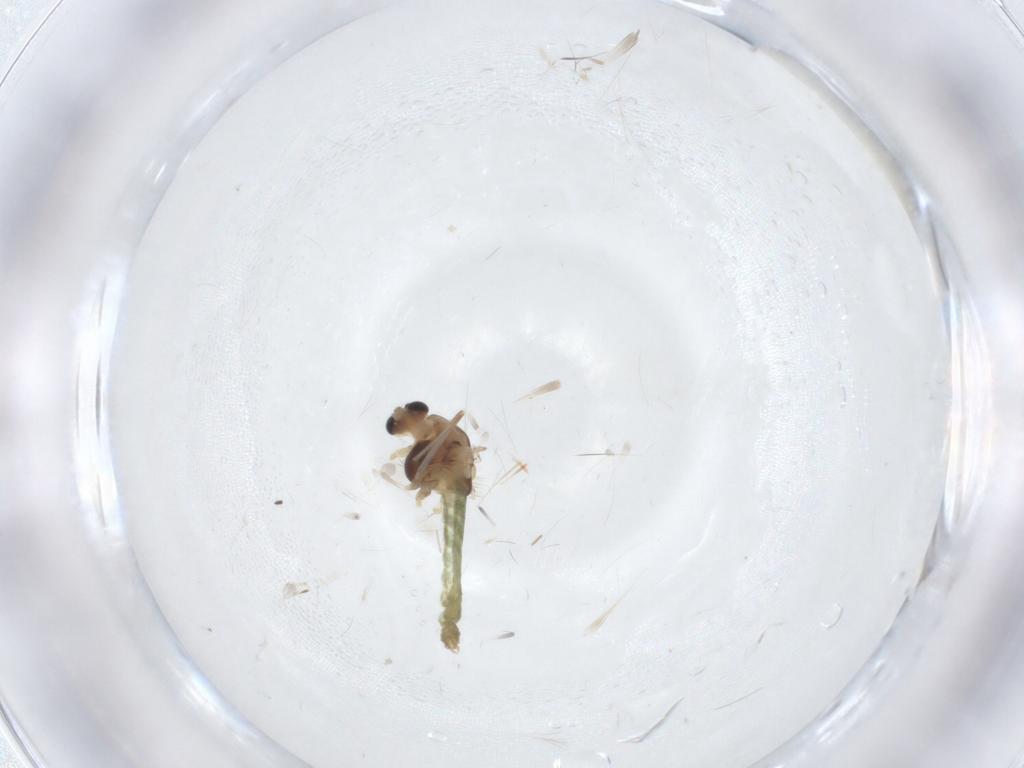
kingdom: Animalia
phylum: Arthropoda
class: Insecta
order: Diptera
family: Chironomidae
